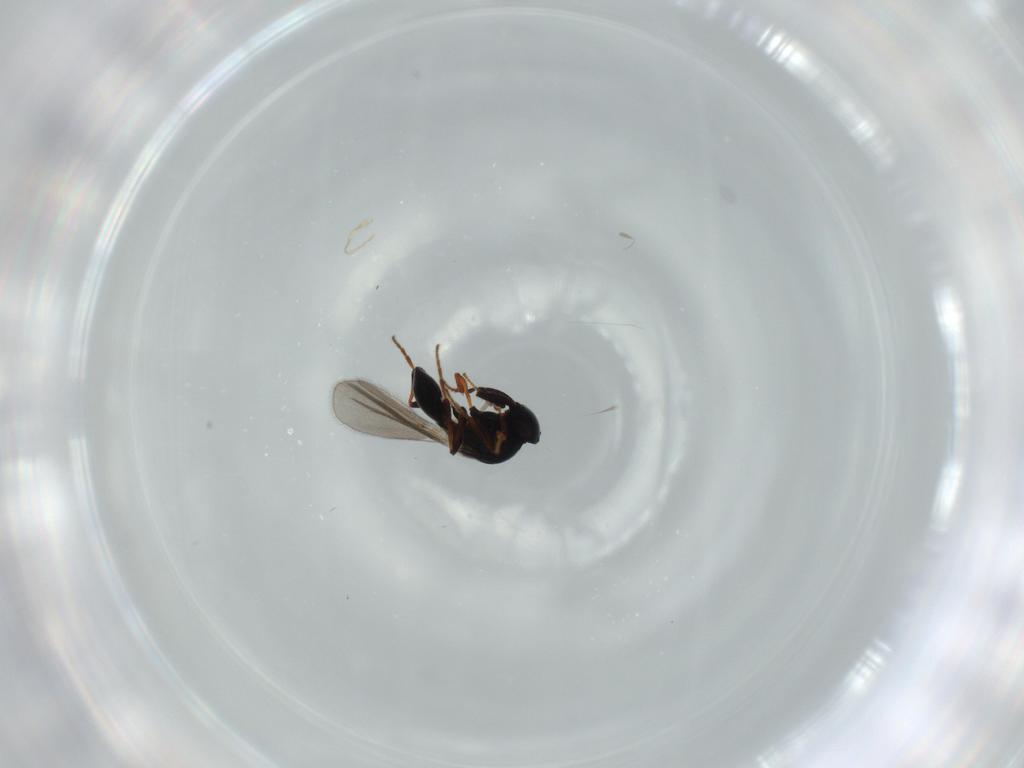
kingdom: Animalia
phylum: Arthropoda
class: Insecta
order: Hymenoptera
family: Platygastridae
